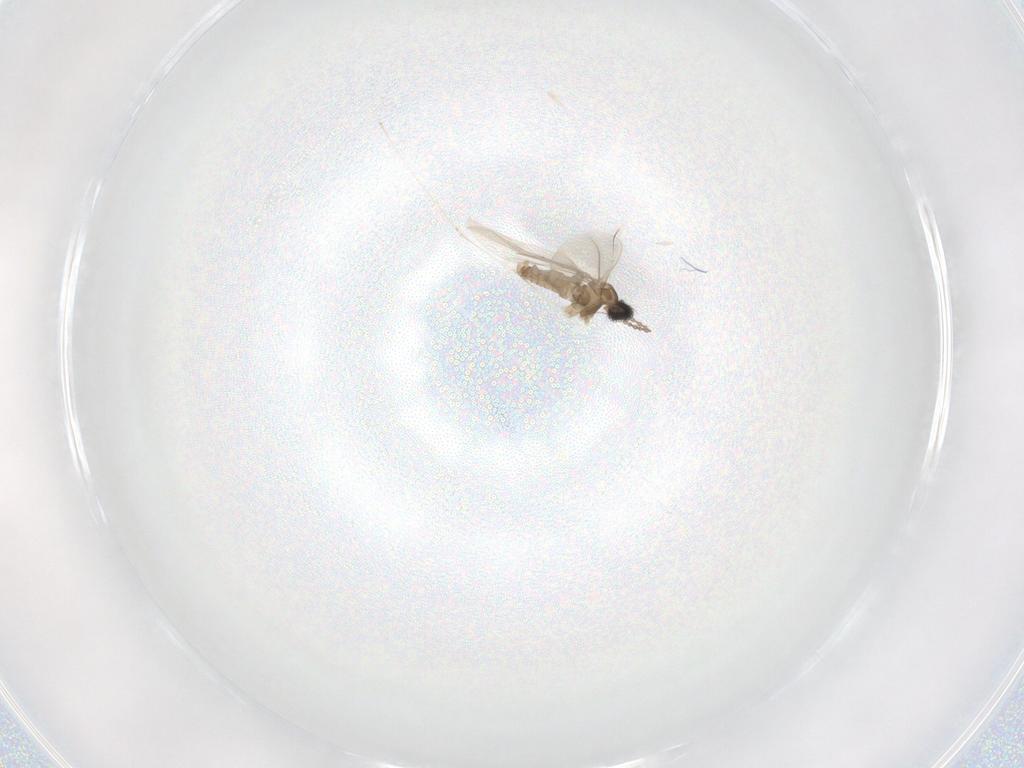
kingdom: Animalia
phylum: Arthropoda
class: Insecta
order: Diptera
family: Cecidomyiidae
